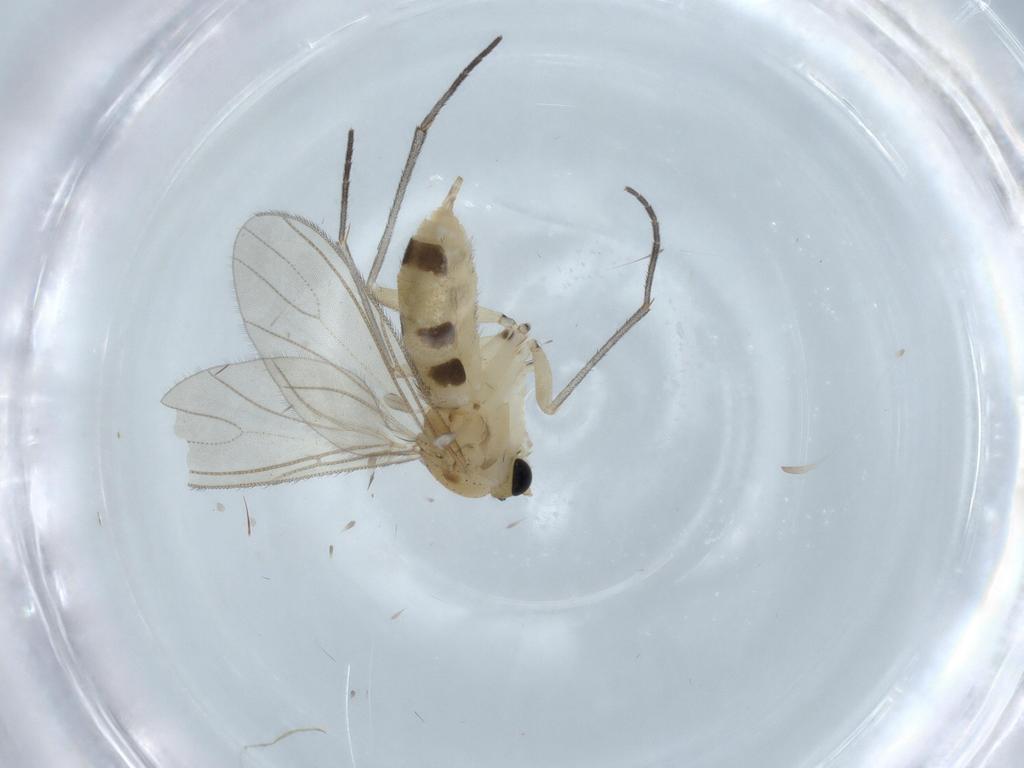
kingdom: Animalia
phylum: Arthropoda
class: Insecta
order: Diptera
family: Sciaridae
